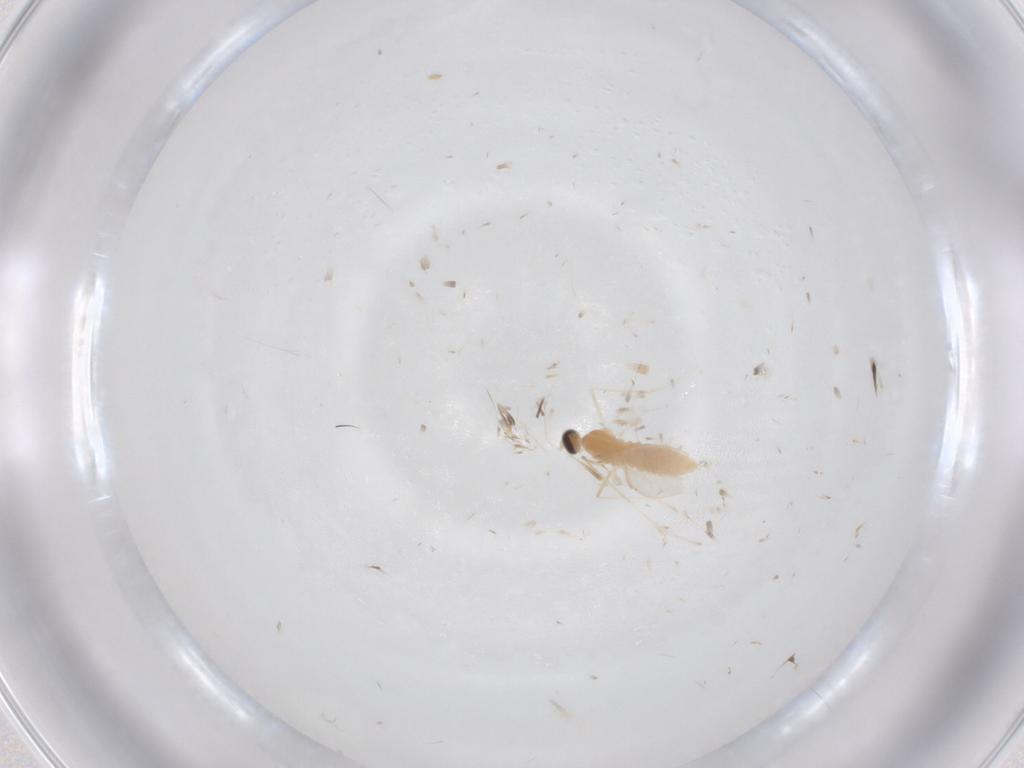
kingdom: Animalia
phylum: Arthropoda
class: Insecta
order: Diptera
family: Cecidomyiidae
